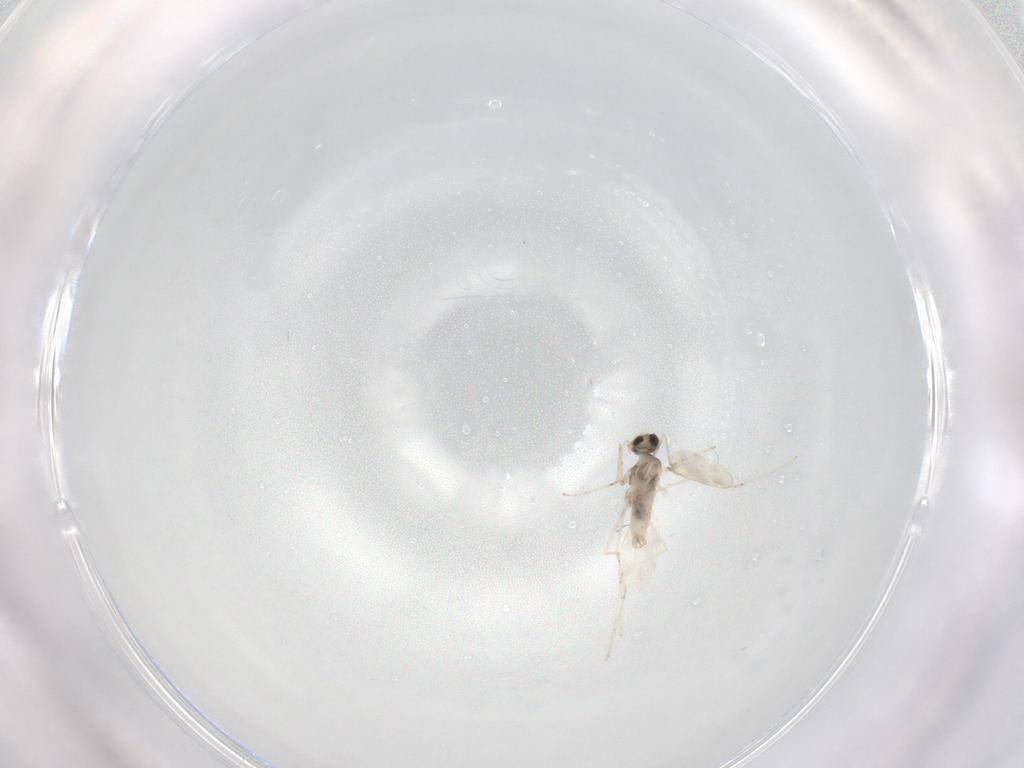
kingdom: Animalia
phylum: Arthropoda
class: Insecta
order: Diptera
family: Cecidomyiidae
